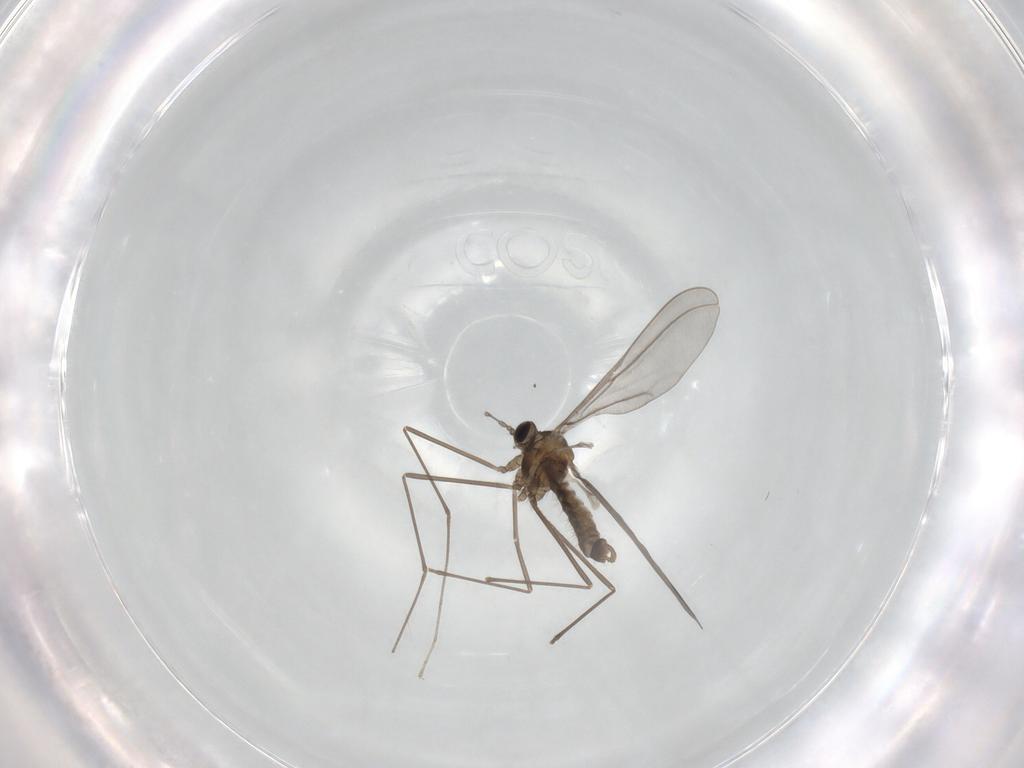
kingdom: Animalia
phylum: Arthropoda
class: Insecta
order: Diptera
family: Cecidomyiidae
